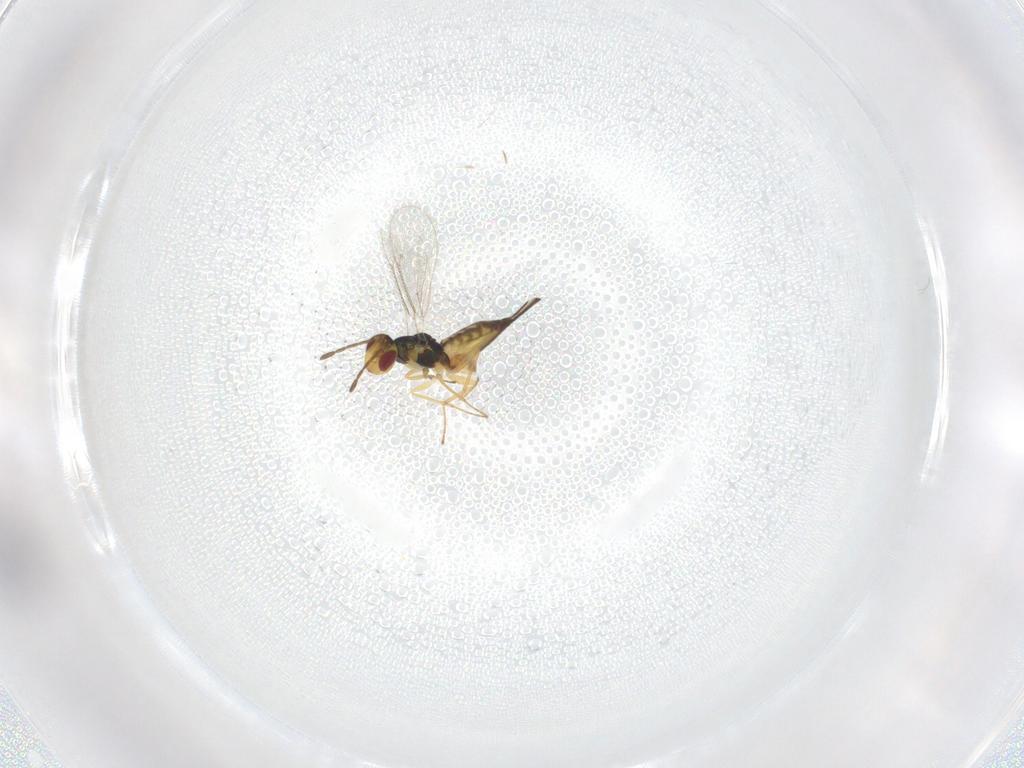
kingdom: Animalia
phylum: Arthropoda
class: Insecta
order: Hymenoptera
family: Eulophidae
